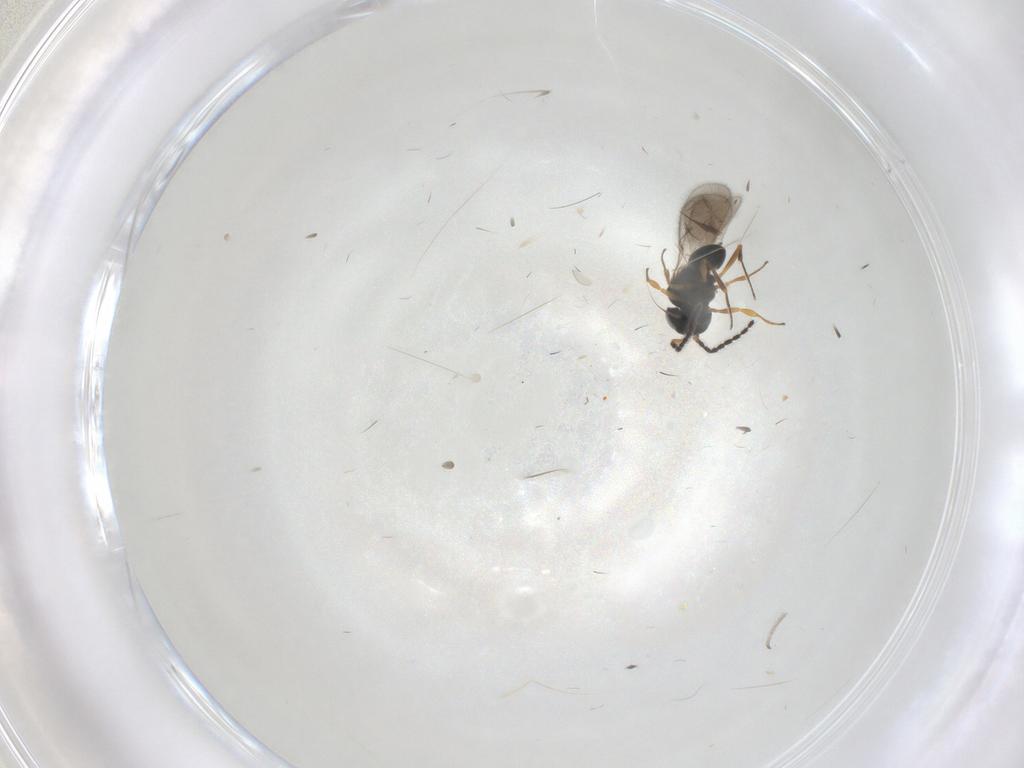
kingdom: Animalia
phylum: Arthropoda
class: Insecta
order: Hymenoptera
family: Scelionidae
